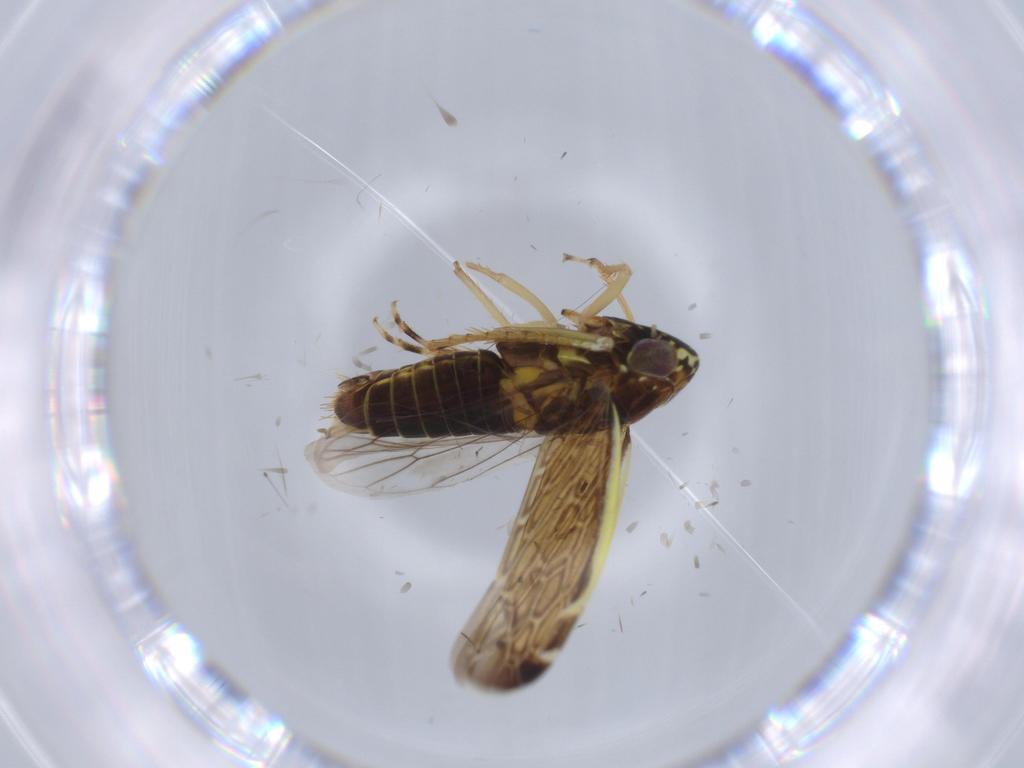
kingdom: Animalia
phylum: Arthropoda
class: Insecta
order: Hemiptera
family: Cicadellidae
